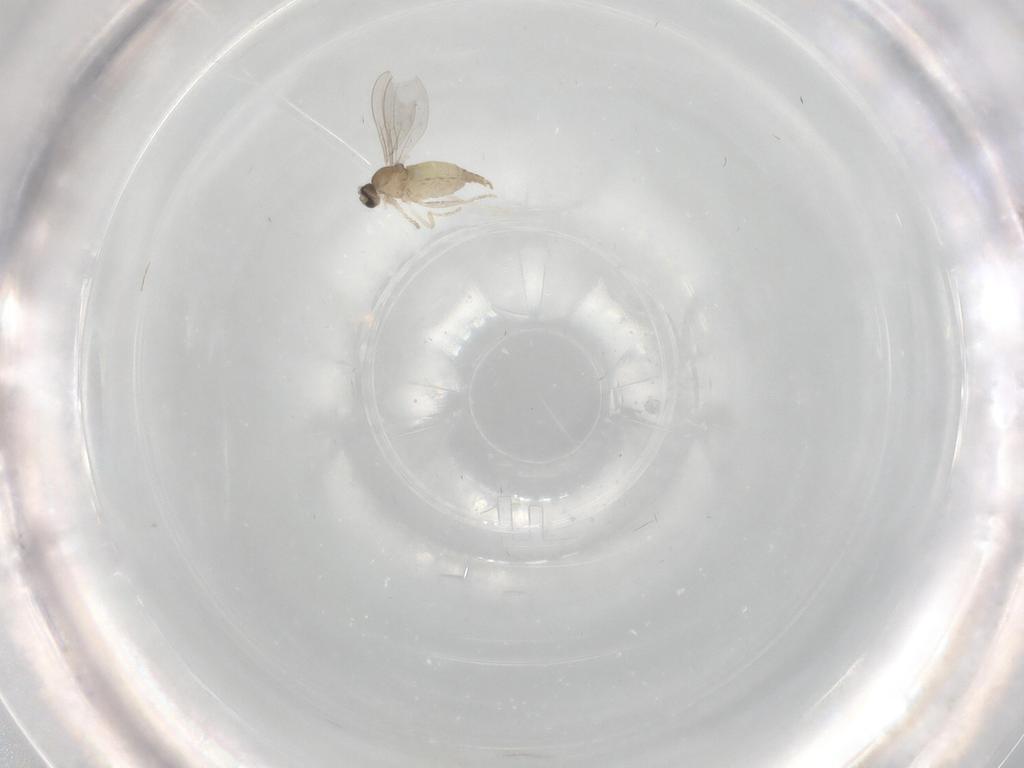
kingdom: Animalia
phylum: Arthropoda
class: Insecta
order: Diptera
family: Cecidomyiidae
